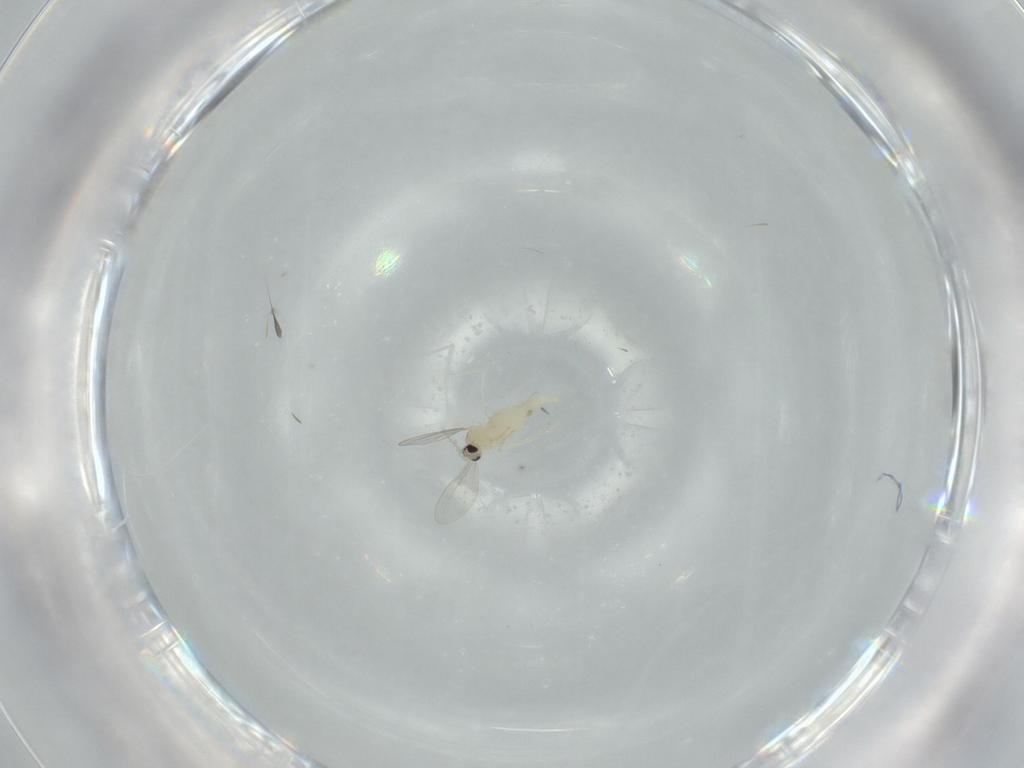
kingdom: Animalia
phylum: Arthropoda
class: Insecta
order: Diptera
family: Cecidomyiidae
